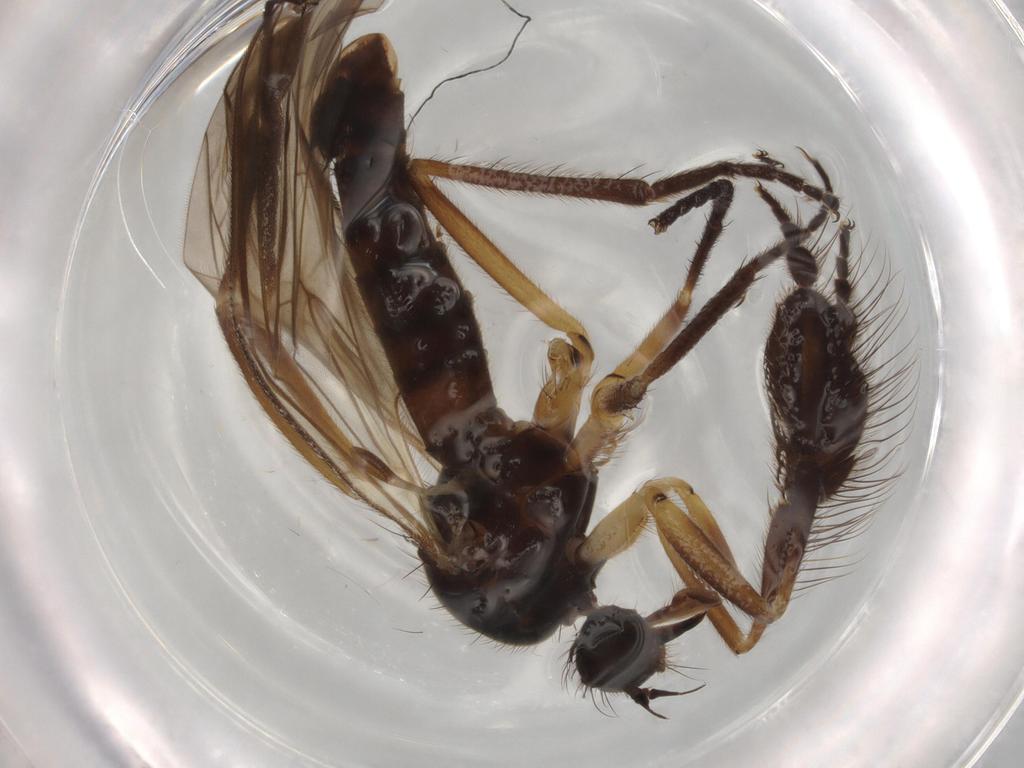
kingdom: Animalia
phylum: Arthropoda
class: Insecta
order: Diptera
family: Empididae
